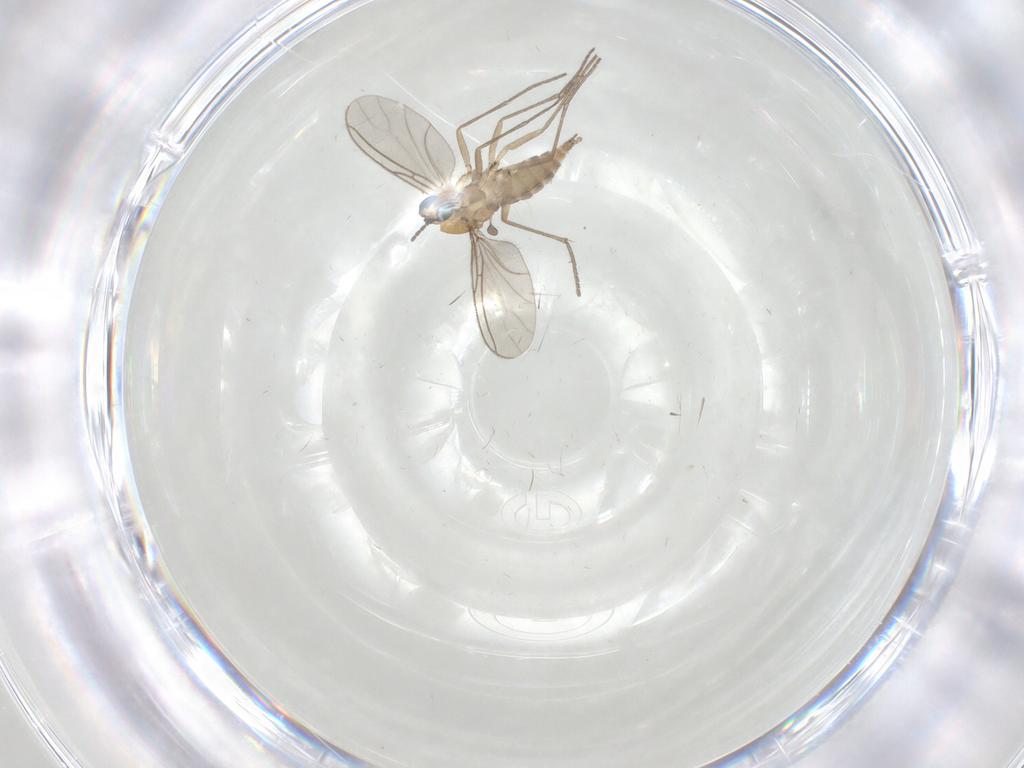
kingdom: Animalia
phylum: Arthropoda
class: Insecta
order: Diptera
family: Sciaridae
